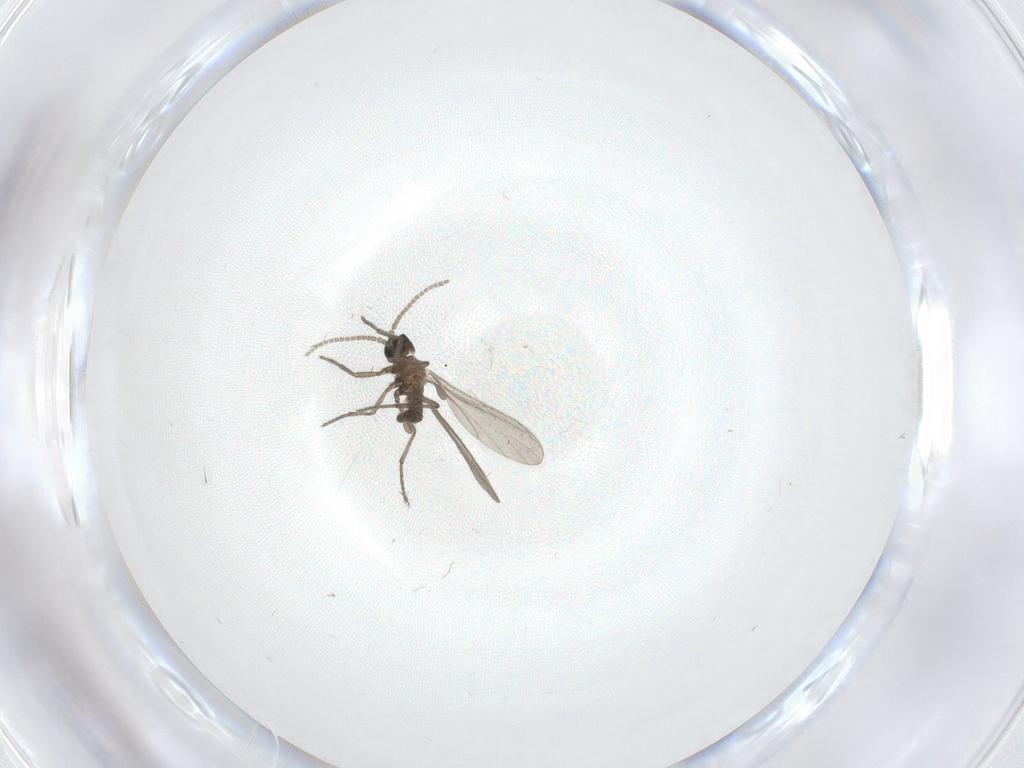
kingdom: Animalia
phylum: Arthropoda
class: Insecta
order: Diptera
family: Sciaridae
